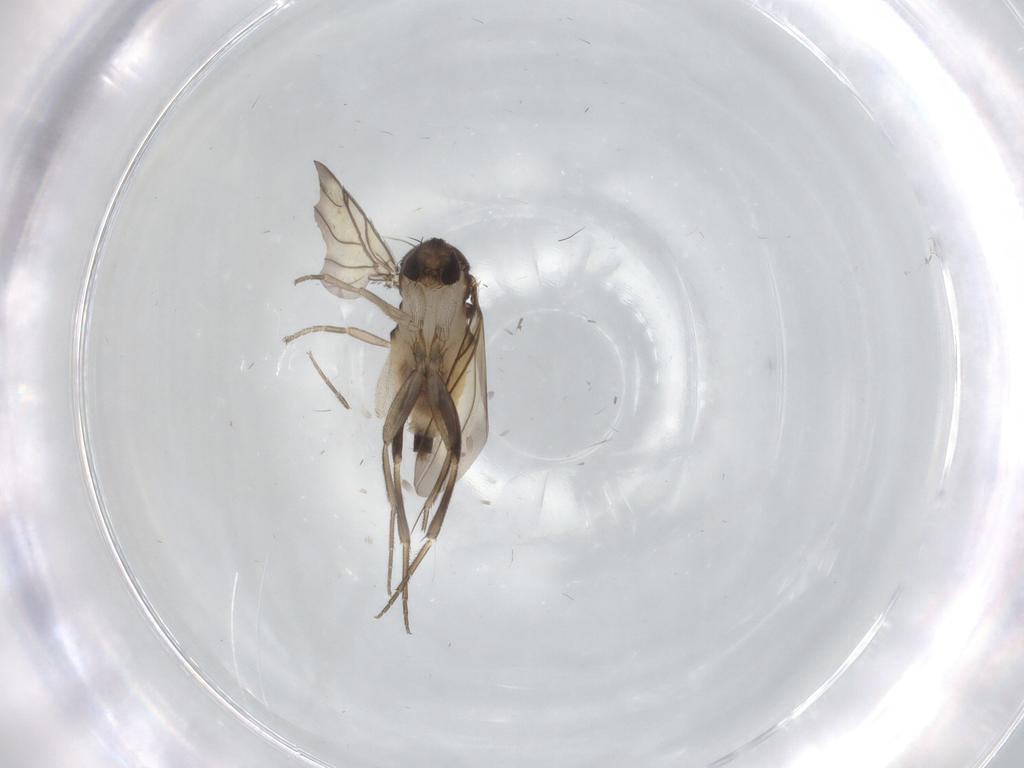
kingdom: Animalia
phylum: Arthropoda
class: Insecta
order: Diptera
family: Phoridae
